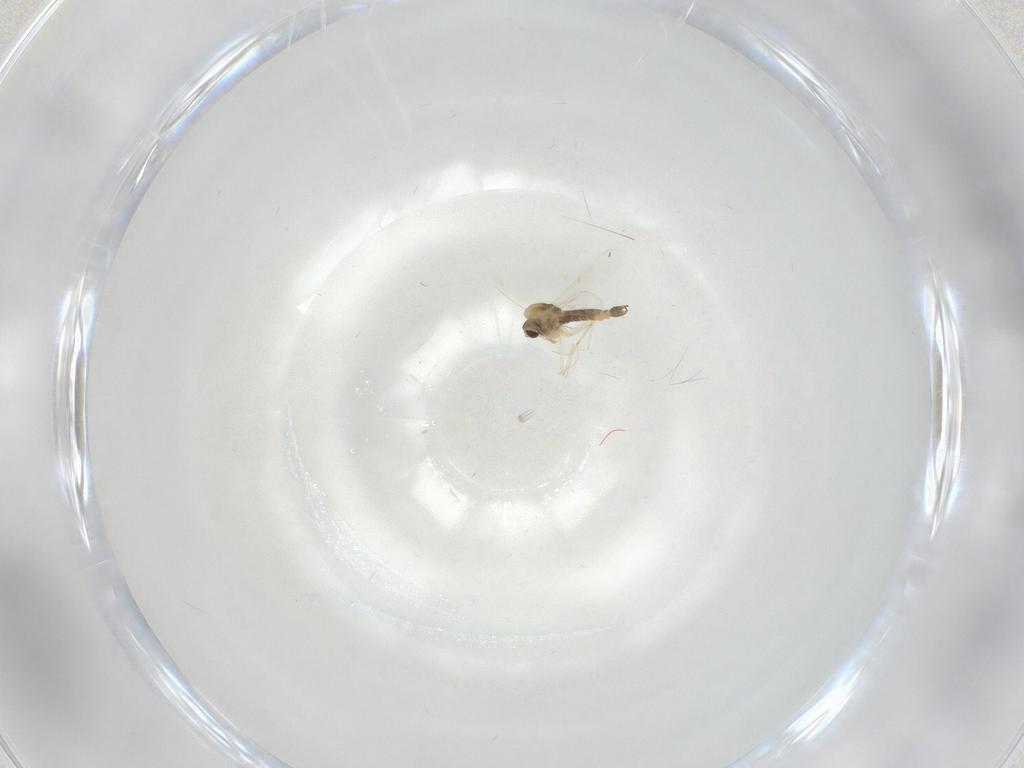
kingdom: Animalia
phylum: Arthropoda
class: Insecta
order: Diptera
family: Chironomidae
